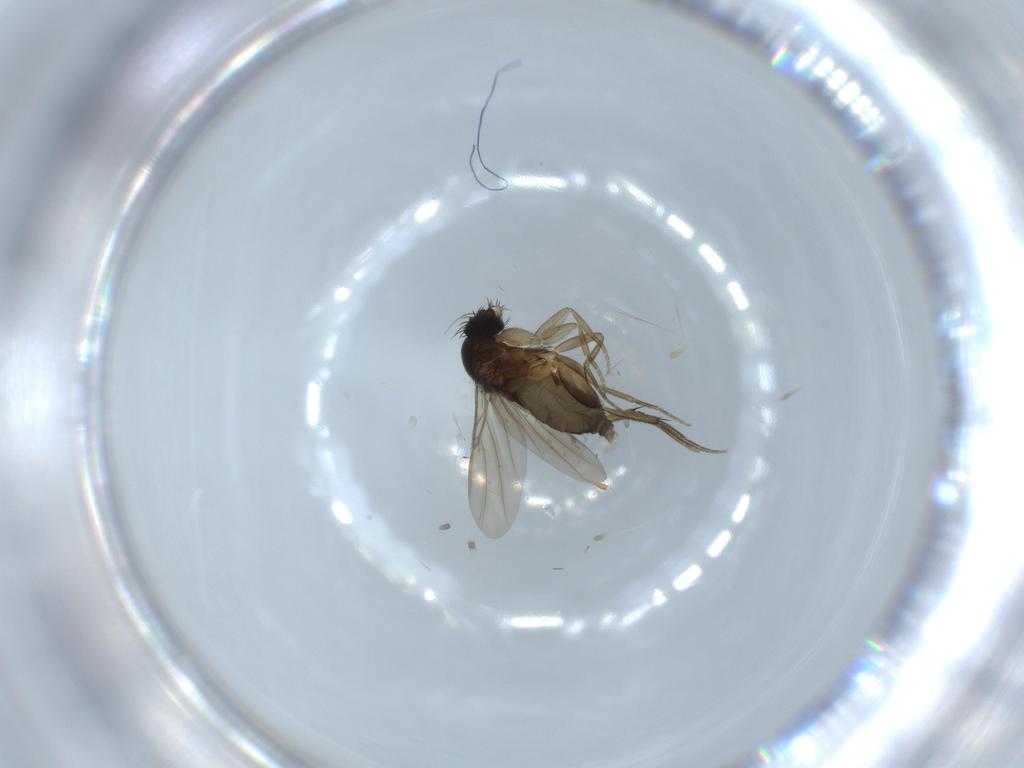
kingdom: Animalia
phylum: Arthropoda
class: Insecta
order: Diptera
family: Phoridae
